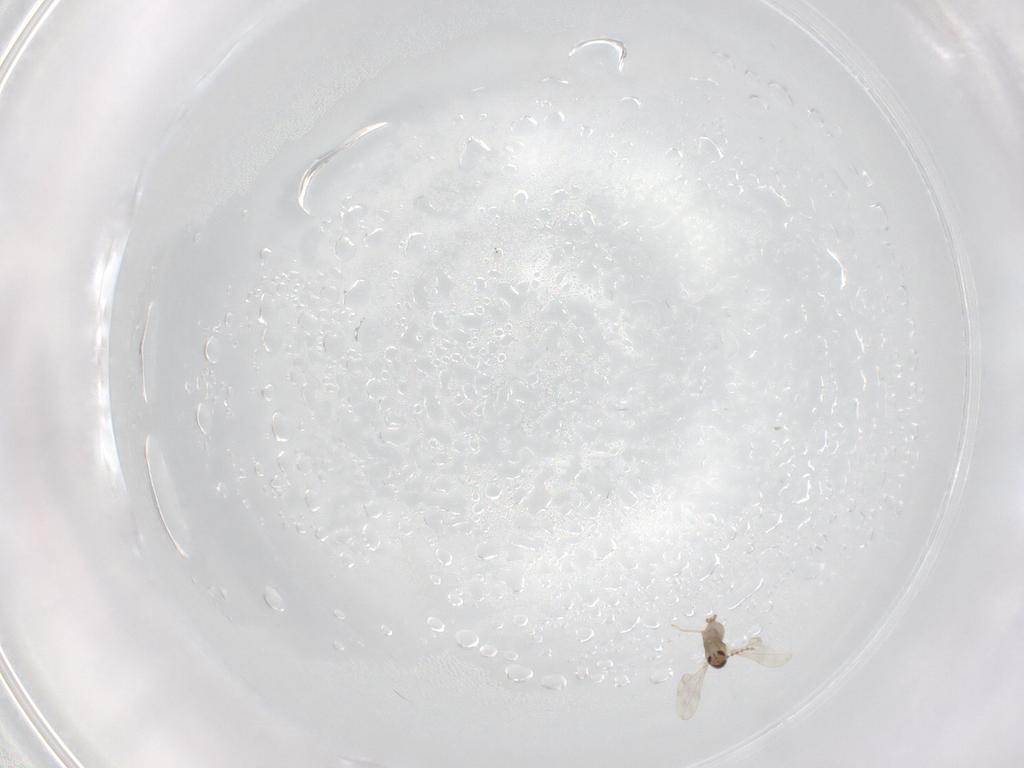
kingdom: Animalia
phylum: Arthropoda
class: Insecta
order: Diptera
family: Cecidomyiidae
